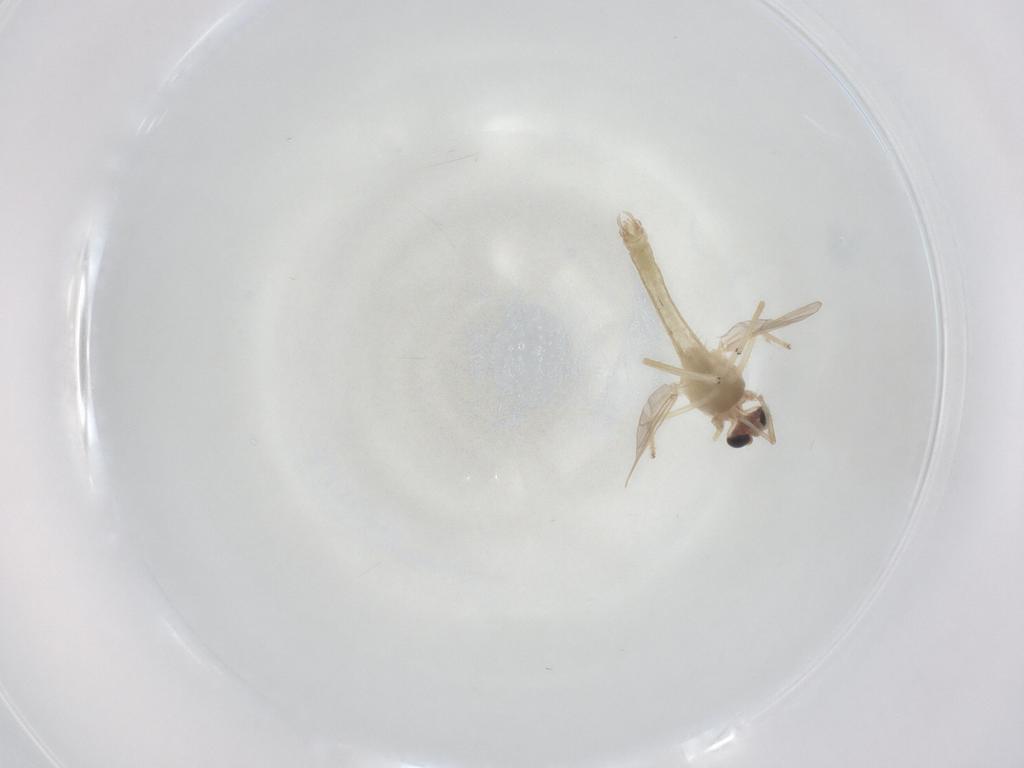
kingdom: Animalia
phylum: Arthropoda
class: Insecta
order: Diptera
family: Chironomidae
